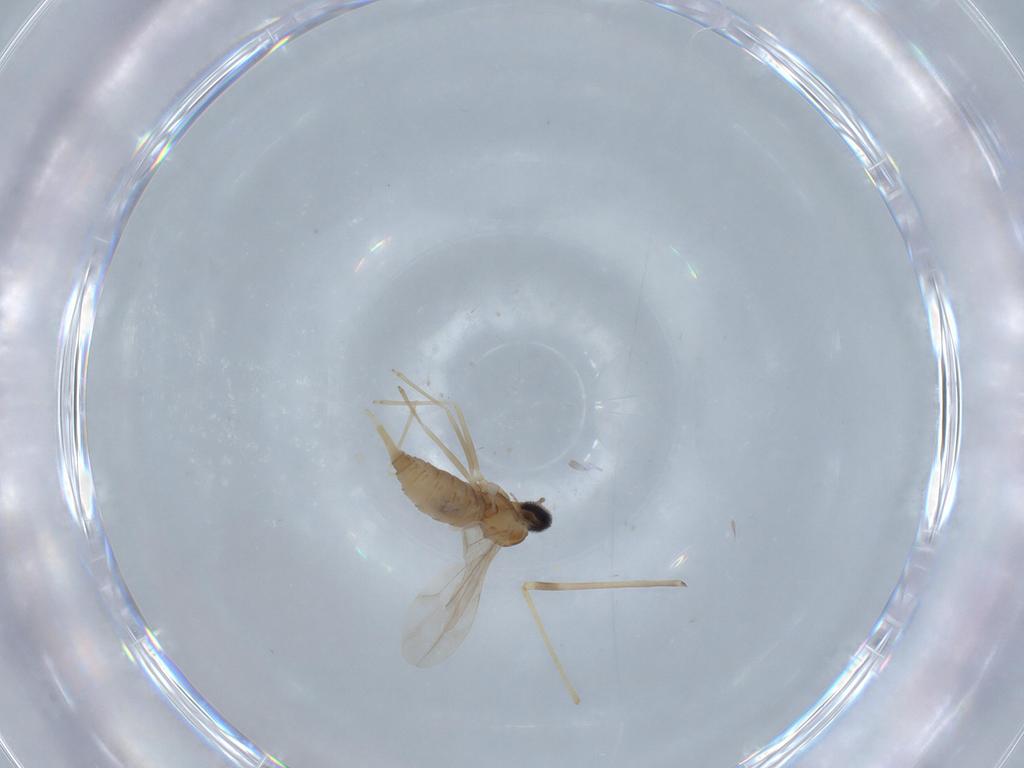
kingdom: Animalia
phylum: Arthropoda
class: Insecta
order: Diptera
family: Cecidomyiidae
